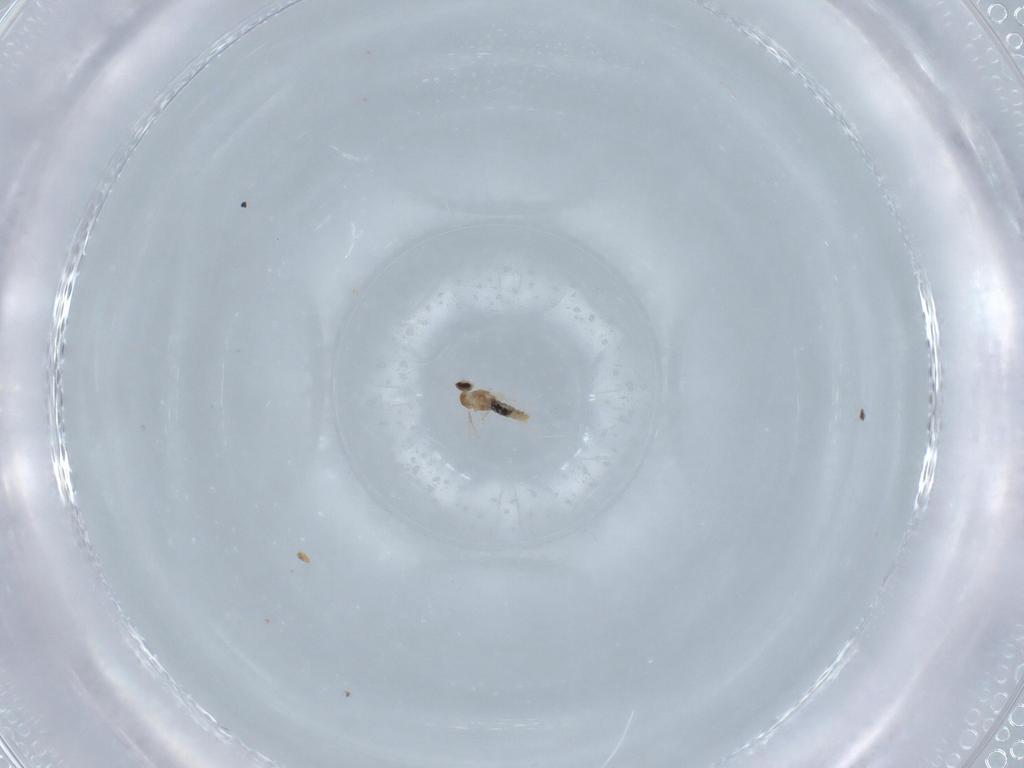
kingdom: Animalia
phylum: Arthropoda
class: Insecta
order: Diptera
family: Cecidomyiidae
